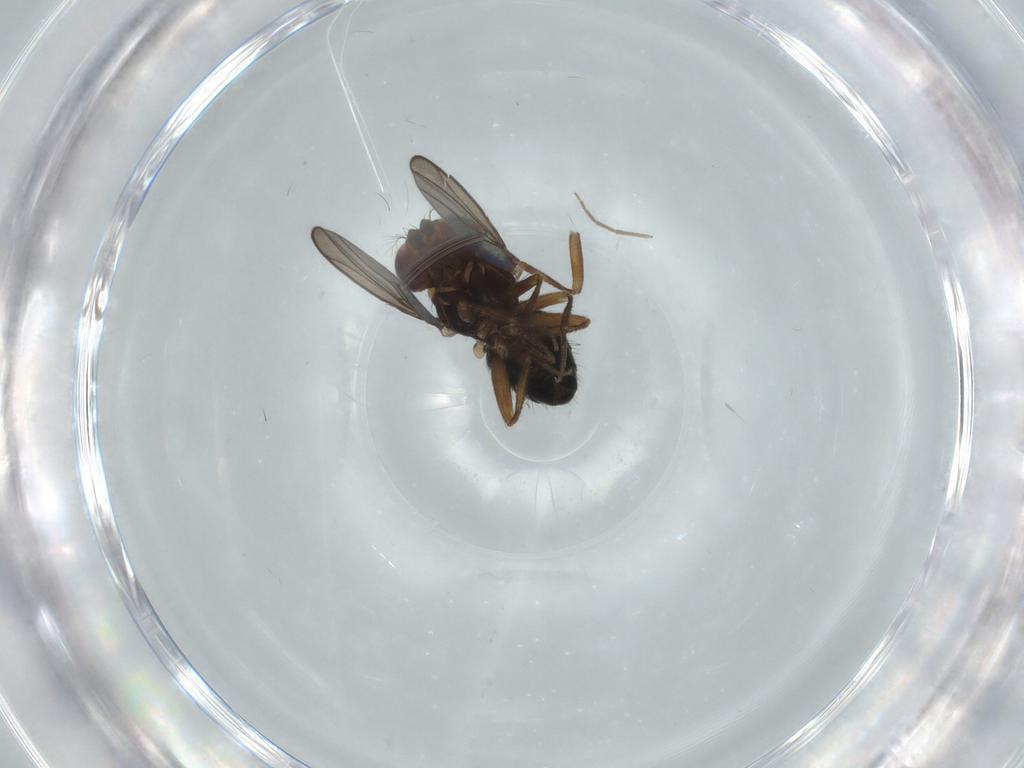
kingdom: Animalia
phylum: Arthropoda
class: Insecta
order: Diptera
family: Drosophilidae
